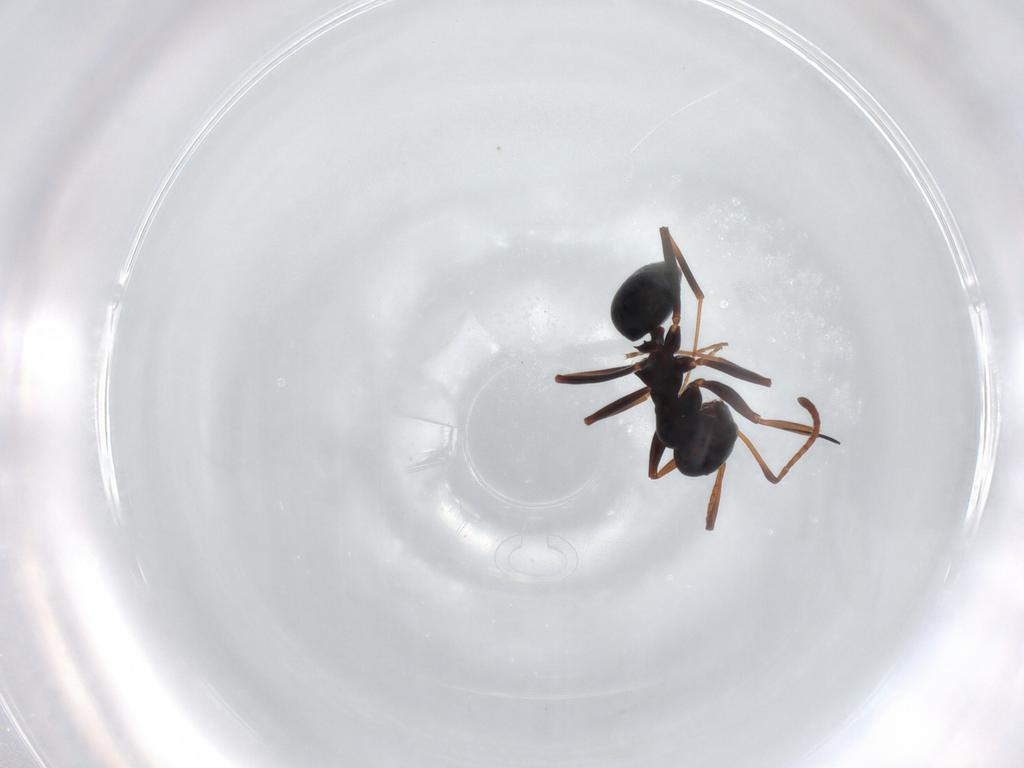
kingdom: Animalia
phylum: Arthropoda
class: Insecta
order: Hymenoptera
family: Formicidae
